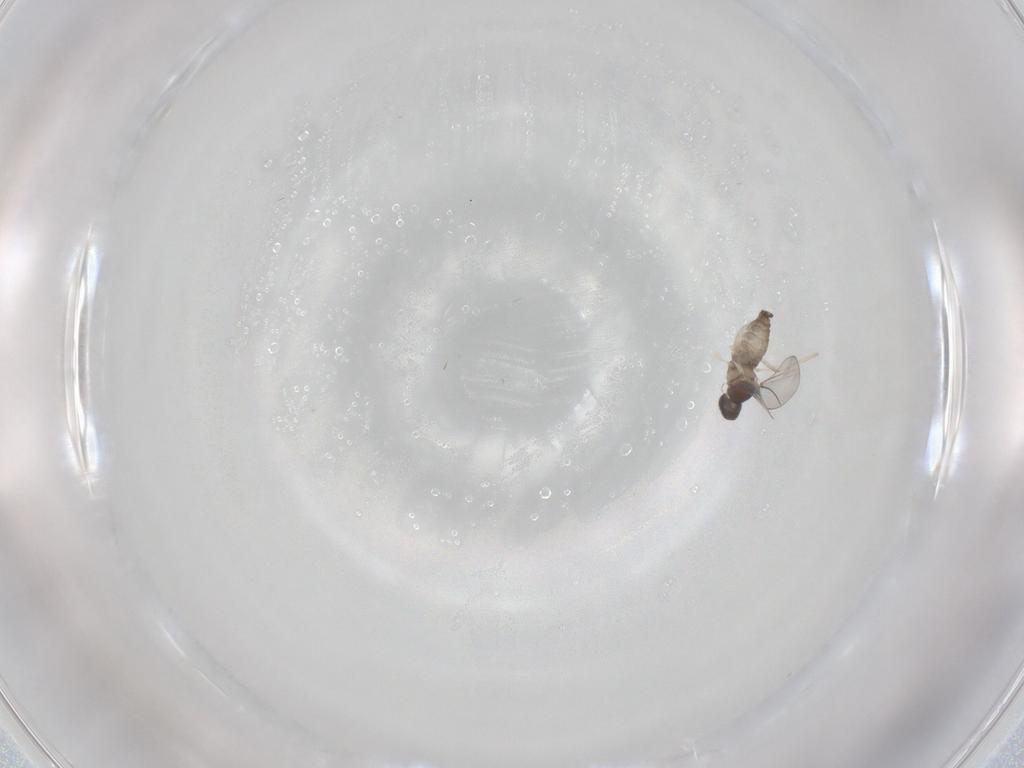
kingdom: Animalia
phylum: Arthropoda
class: Insecta
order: Diptera
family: Cecidomyiidae
